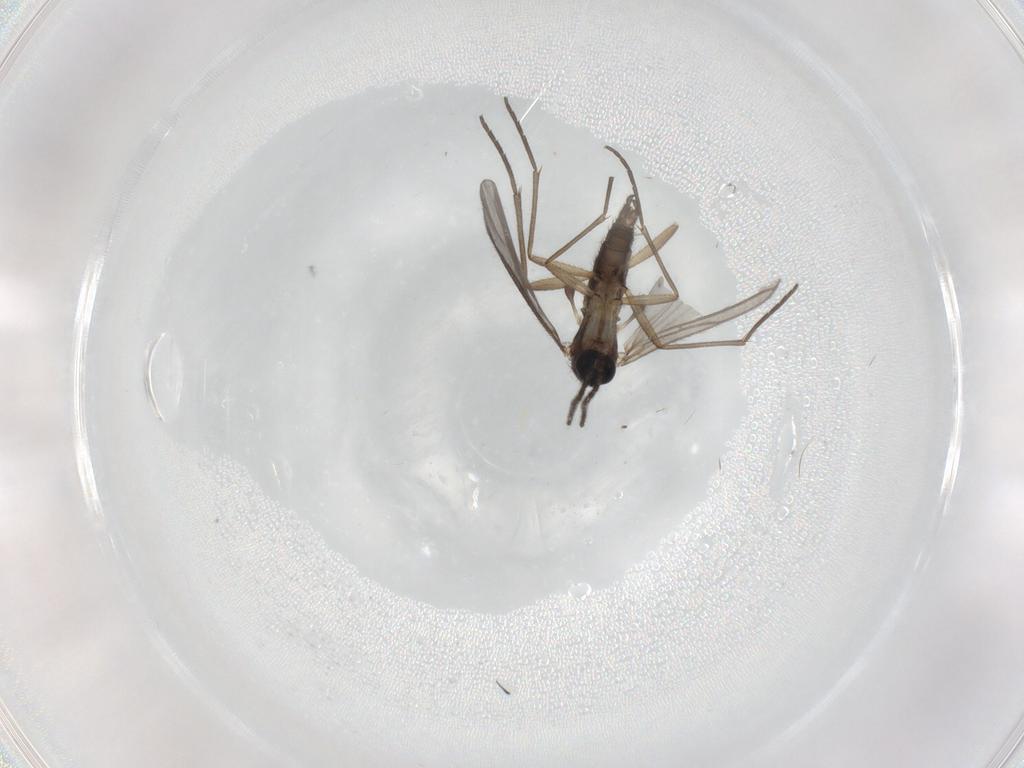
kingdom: Animalia
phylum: Arthropoda
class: Insecta
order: Diptera
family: Sciaridae
